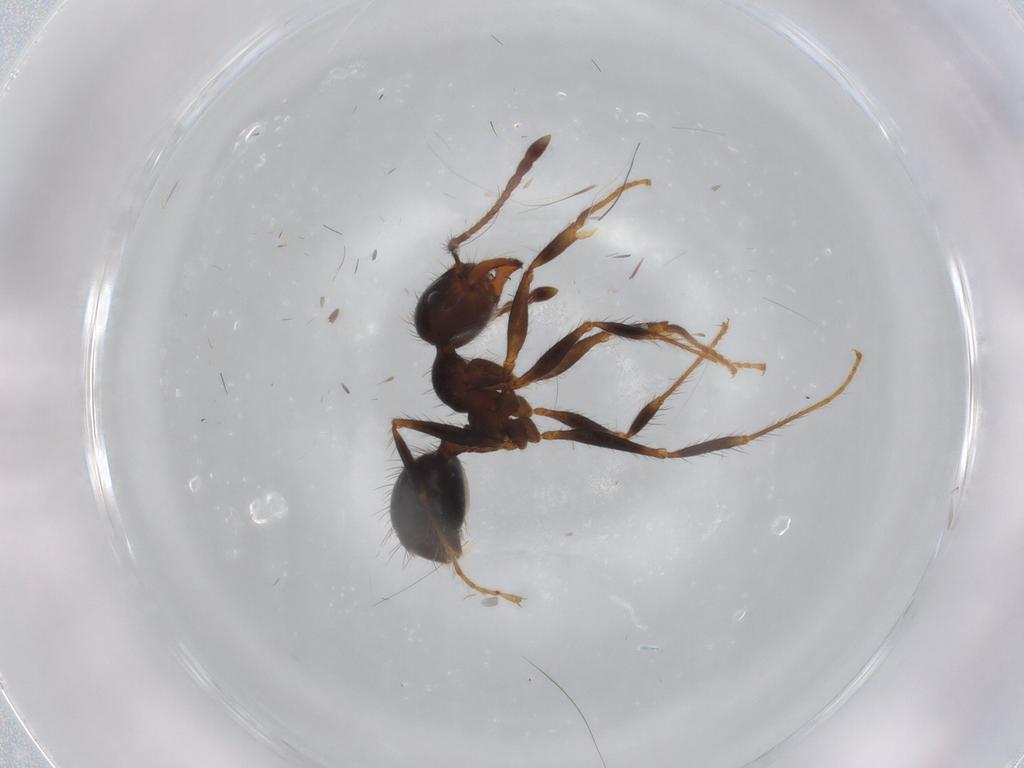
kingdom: Animalia
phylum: Arthropoda
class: Insecta
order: Hymenoptera
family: Formicidae
